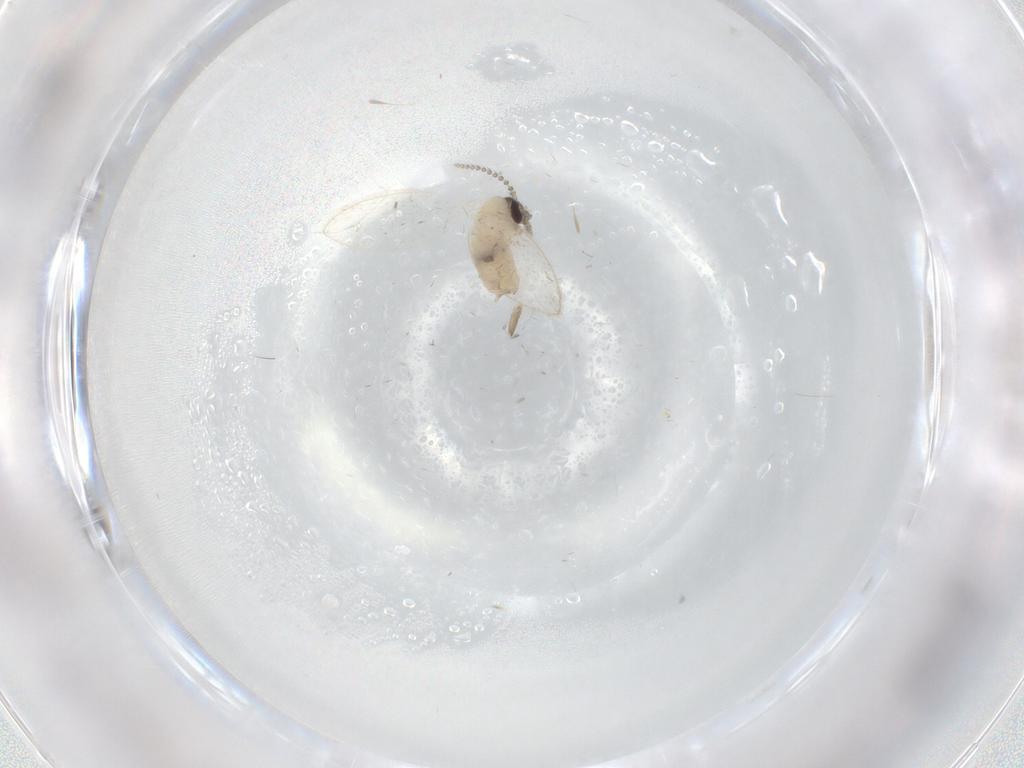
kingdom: Animalia
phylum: Arthropoda
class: Insecta
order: Diptera
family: Psychodidae
